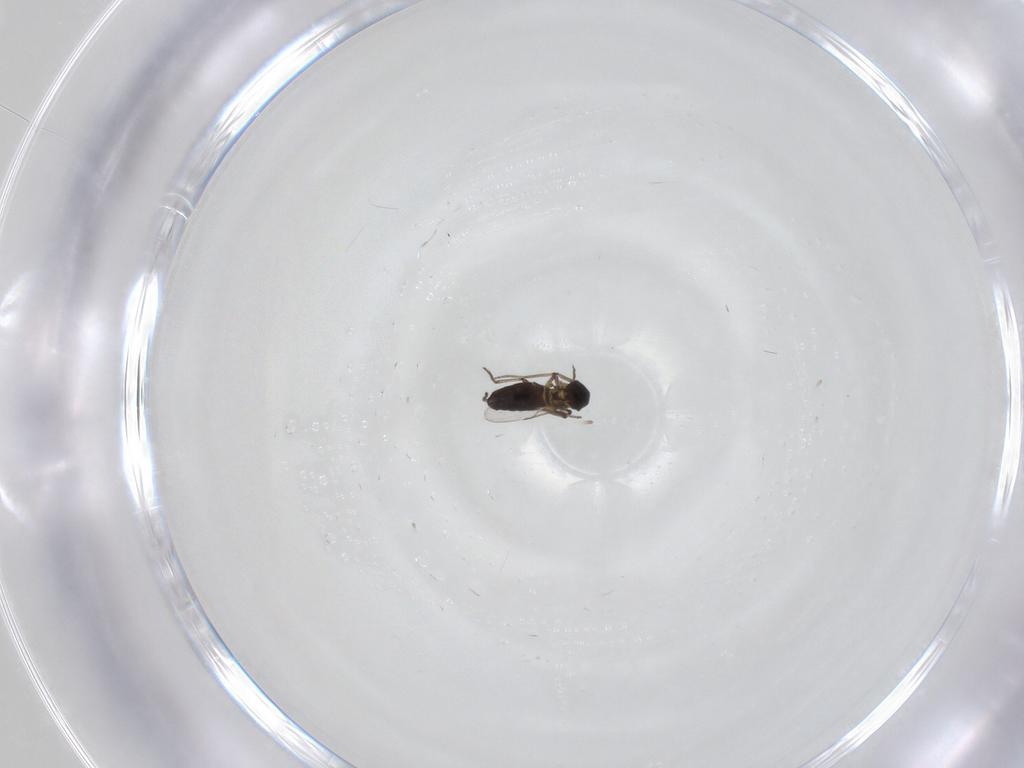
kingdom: Animalia
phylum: Arthropoda
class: Insecta
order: Diptera
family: Ceratopogonidae
